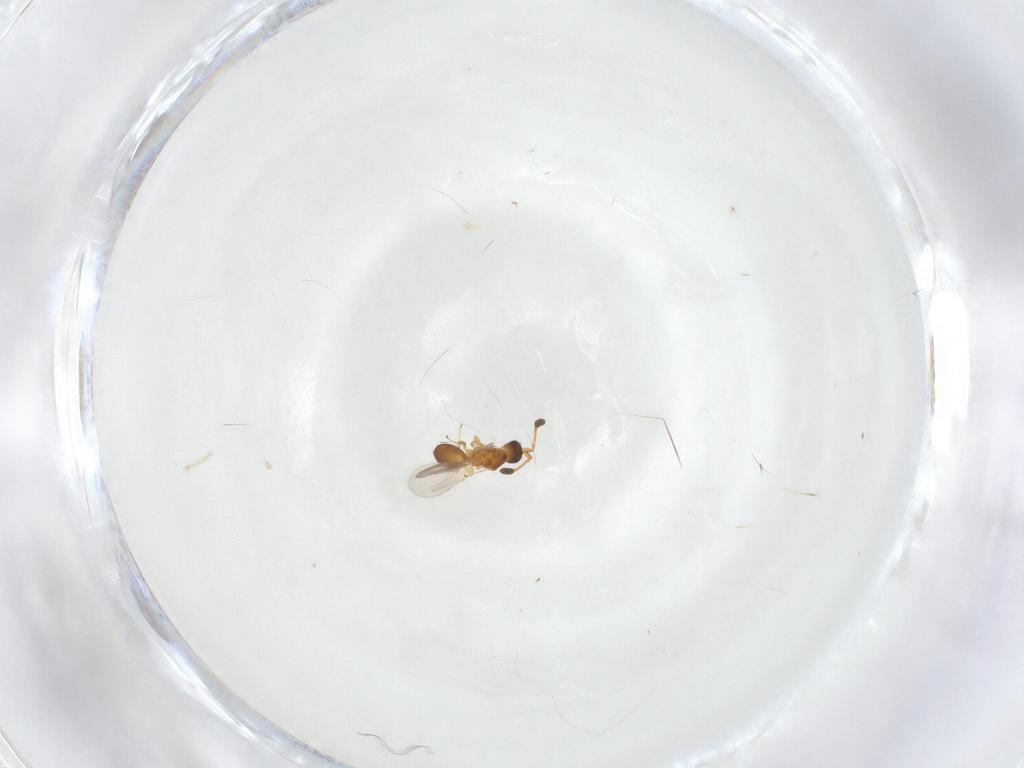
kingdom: Animalia
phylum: Arthropoda
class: Insecta
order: Hymenoptera
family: Diapriidae
